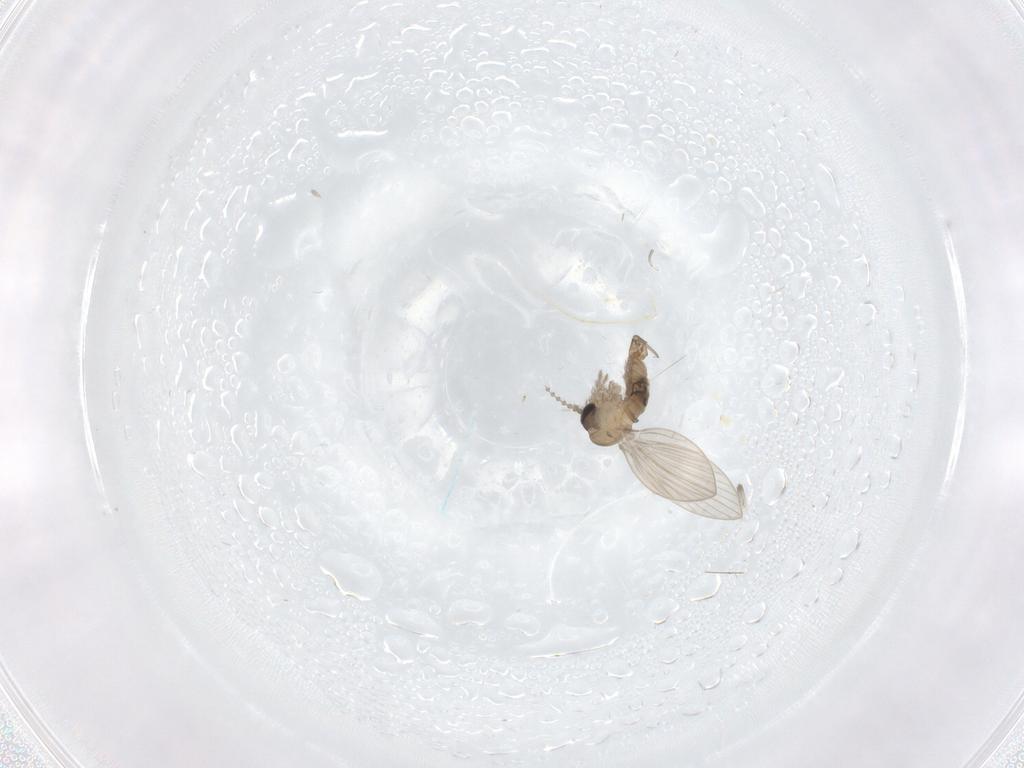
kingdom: Animalia
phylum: Arthropoda
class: Insecta
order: Diptera
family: Psychodidae
